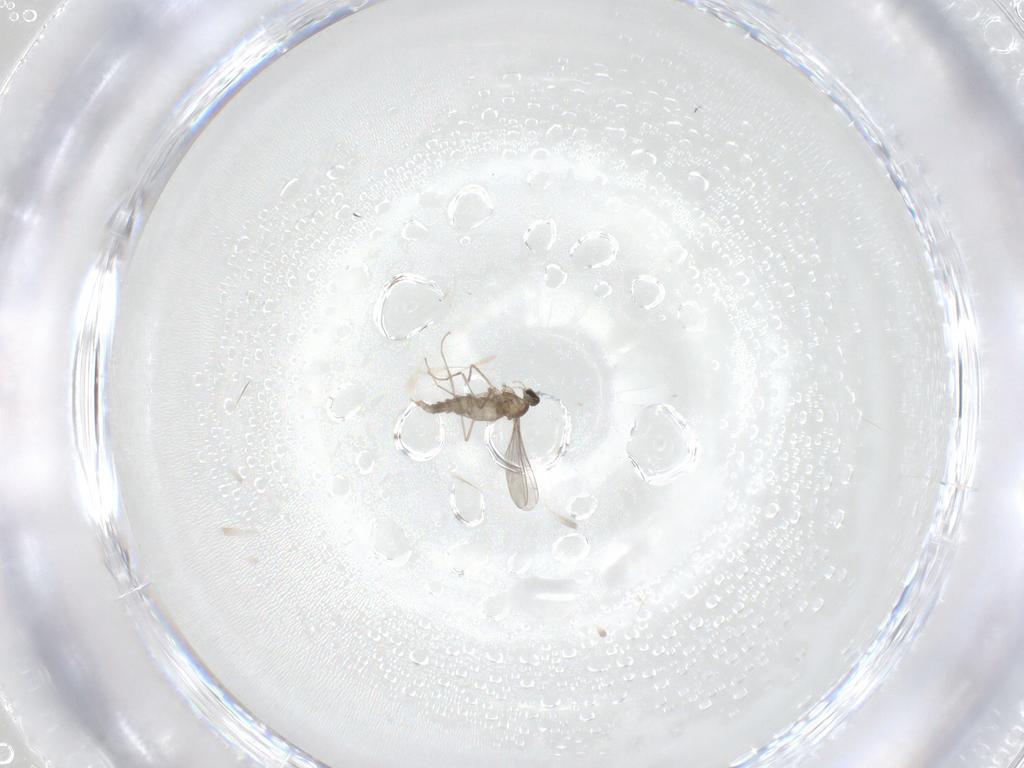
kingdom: Animalia
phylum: Arthropoda
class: Insecta
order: Diptera
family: Cecidomyiidae
